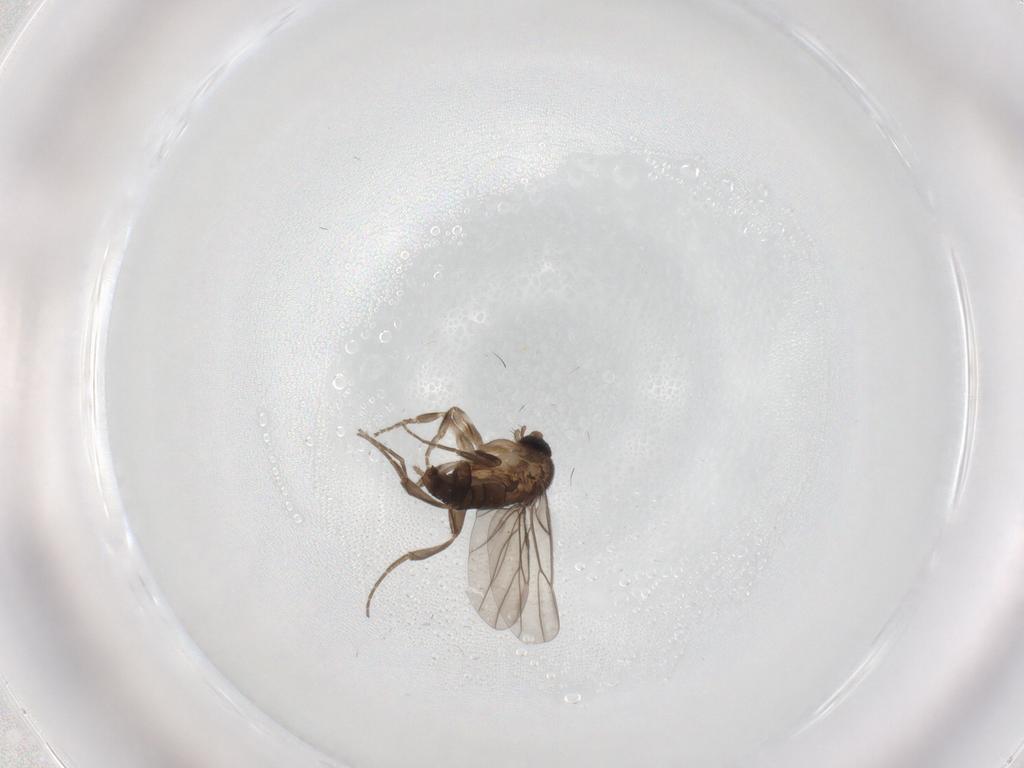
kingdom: Animalia
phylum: Arthropoda
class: Insecta
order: Diptera
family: Phoridae
